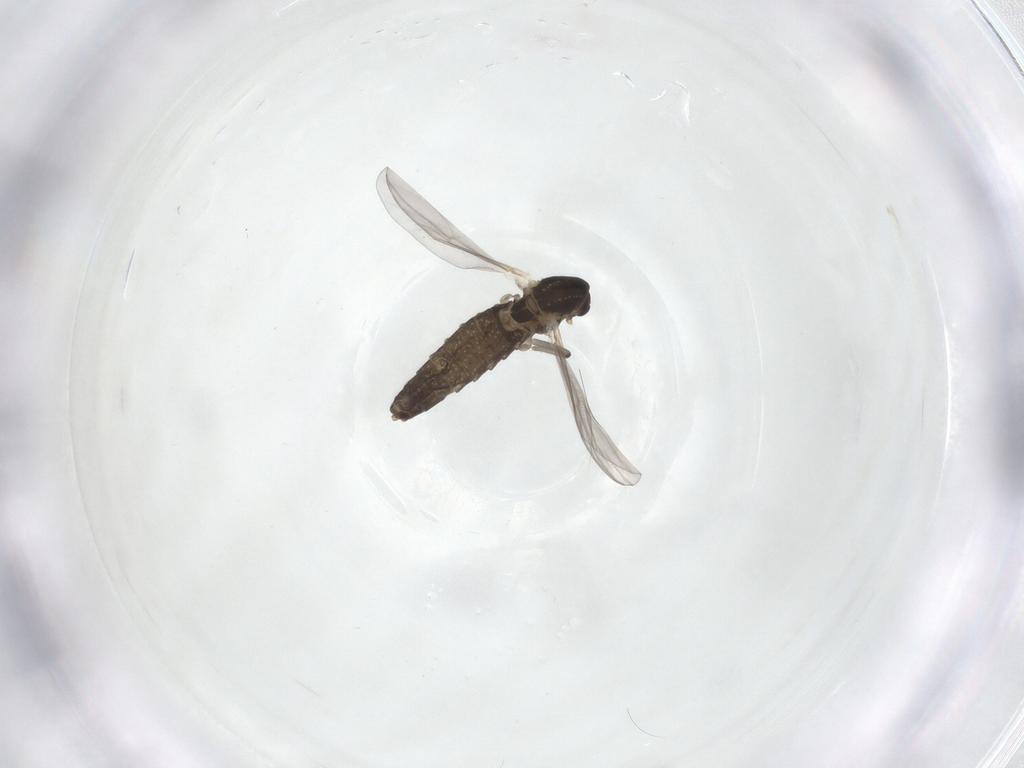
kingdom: Animalia
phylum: Arthropoda
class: Insecta
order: Diptera
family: Chironomidae
